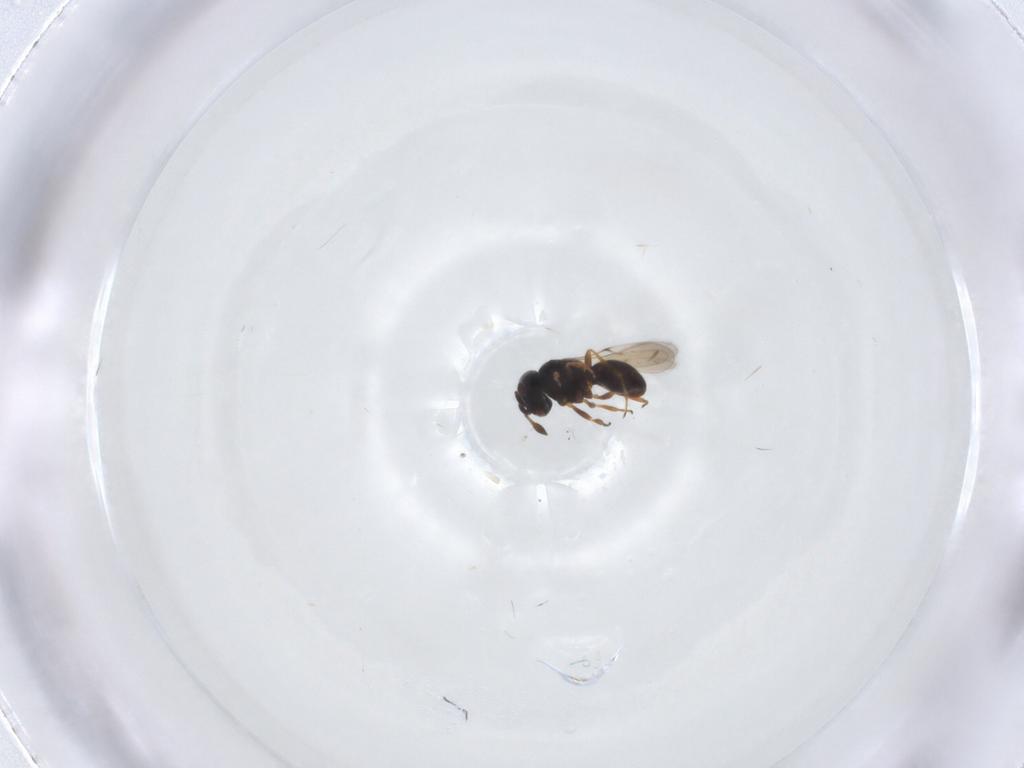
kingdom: Animalia
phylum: Arthropoda
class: Insecta
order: Hymenoptera
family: Scelionidae
